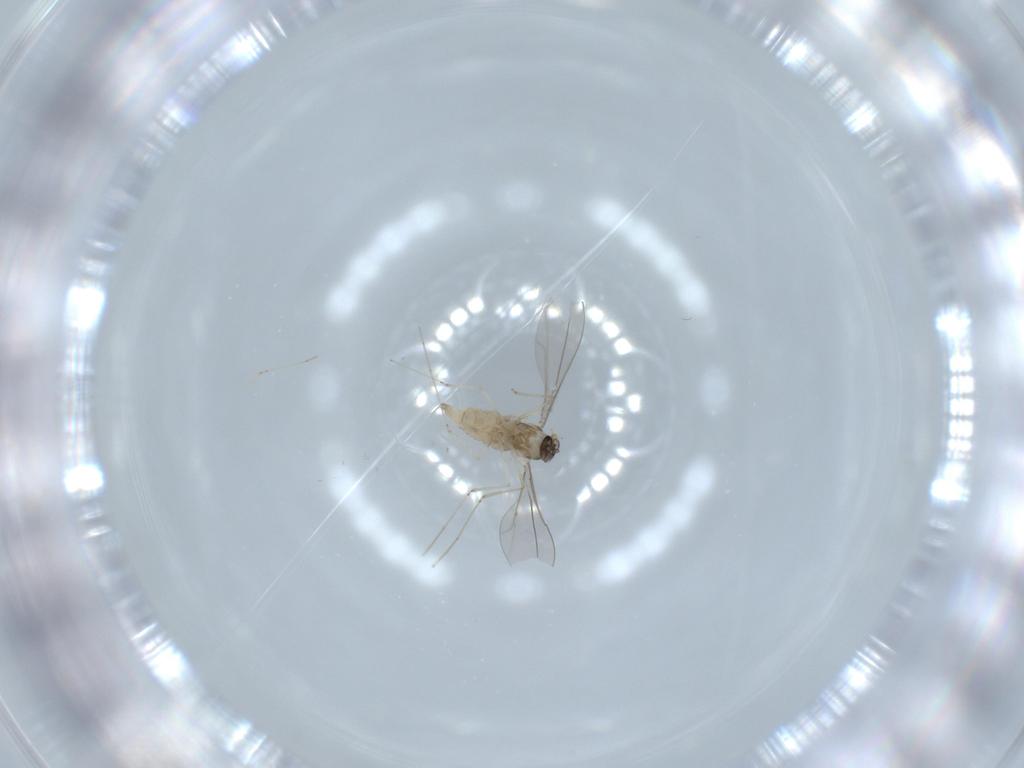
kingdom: Animalia
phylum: Arthropoda
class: Insecta
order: Diptera
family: Cecidomyiidae
